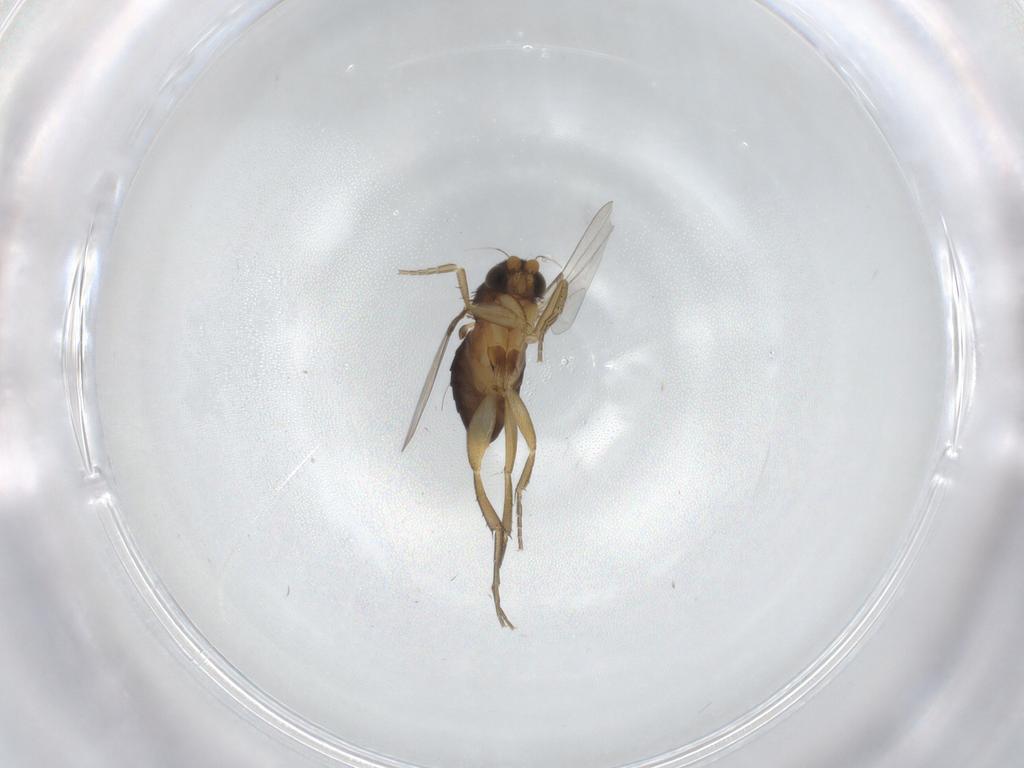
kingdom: Animalia
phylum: Arthropoda
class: Insecta
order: Diptera
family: Phoridae
